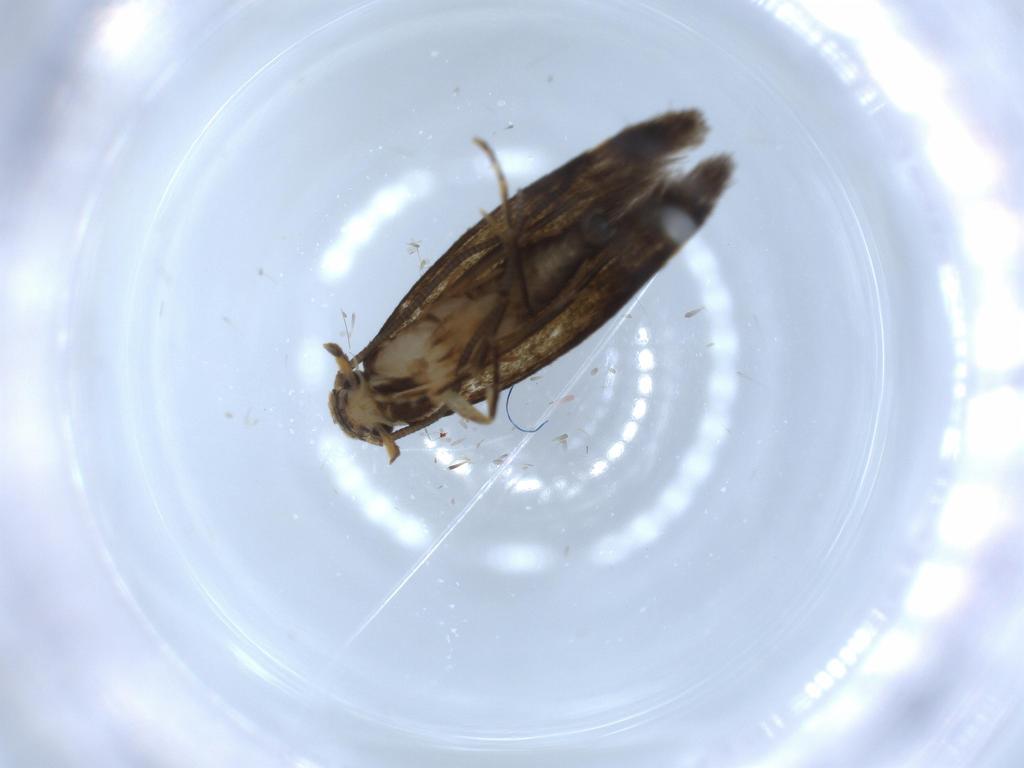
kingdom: Animalia
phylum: Arthropoda
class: Insecta
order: Lepidoptera
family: Tineidae
